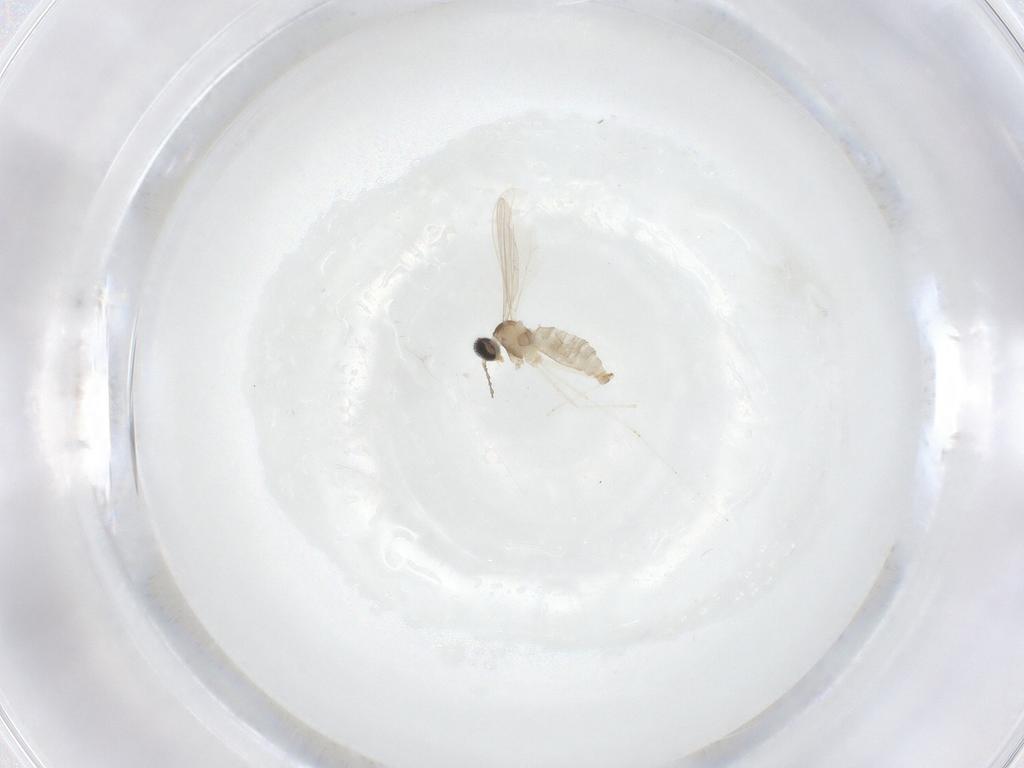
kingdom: Animalia
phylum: Arthropoda
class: Insecta
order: Diptera
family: Cecidomyiidae
